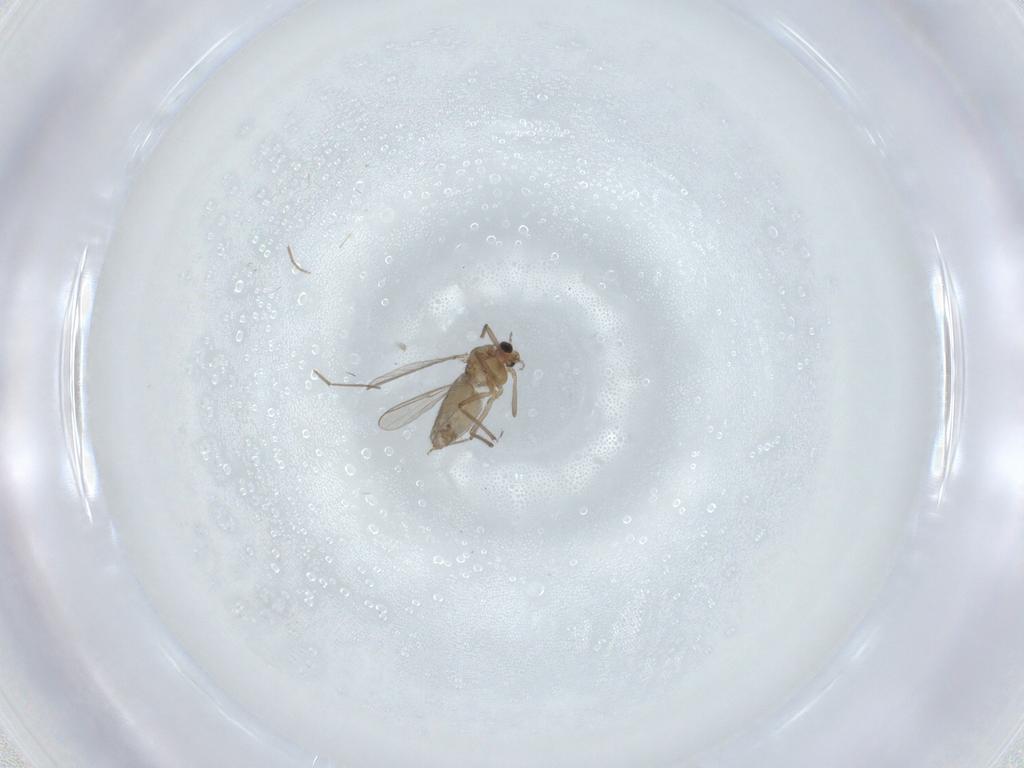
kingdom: Animalia
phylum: Arthropoda
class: Insecta
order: Diptera
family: Chironomidae
